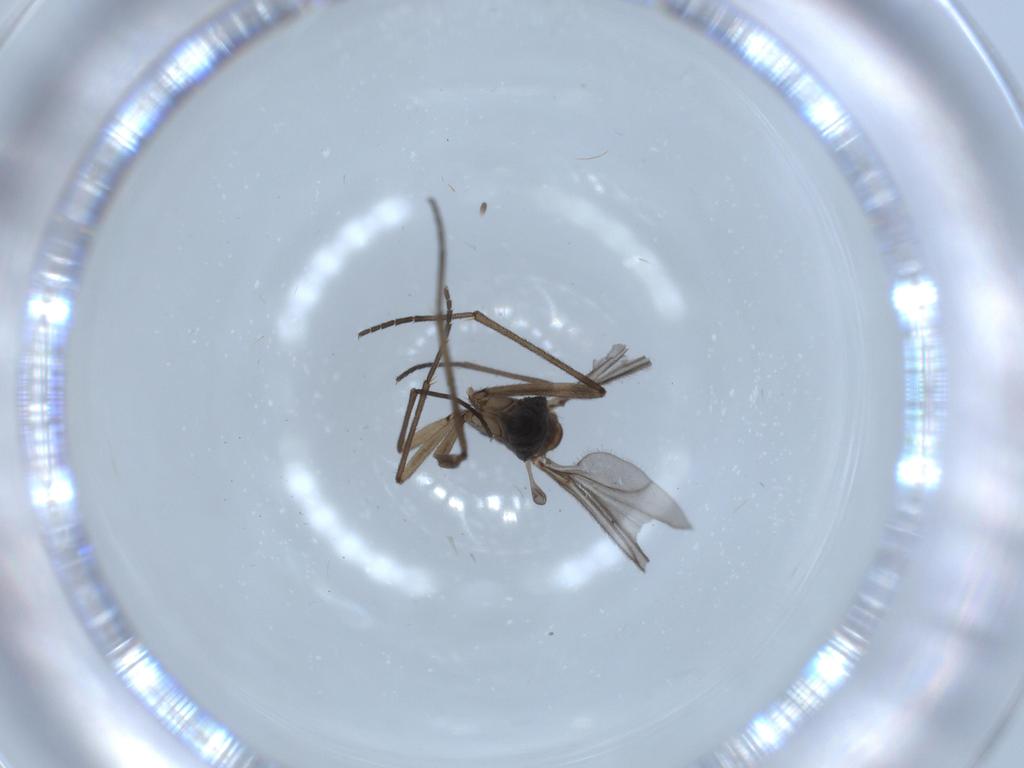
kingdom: Animalia
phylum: Arthropoda
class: Insecta
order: Diptera
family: Sciaridae
